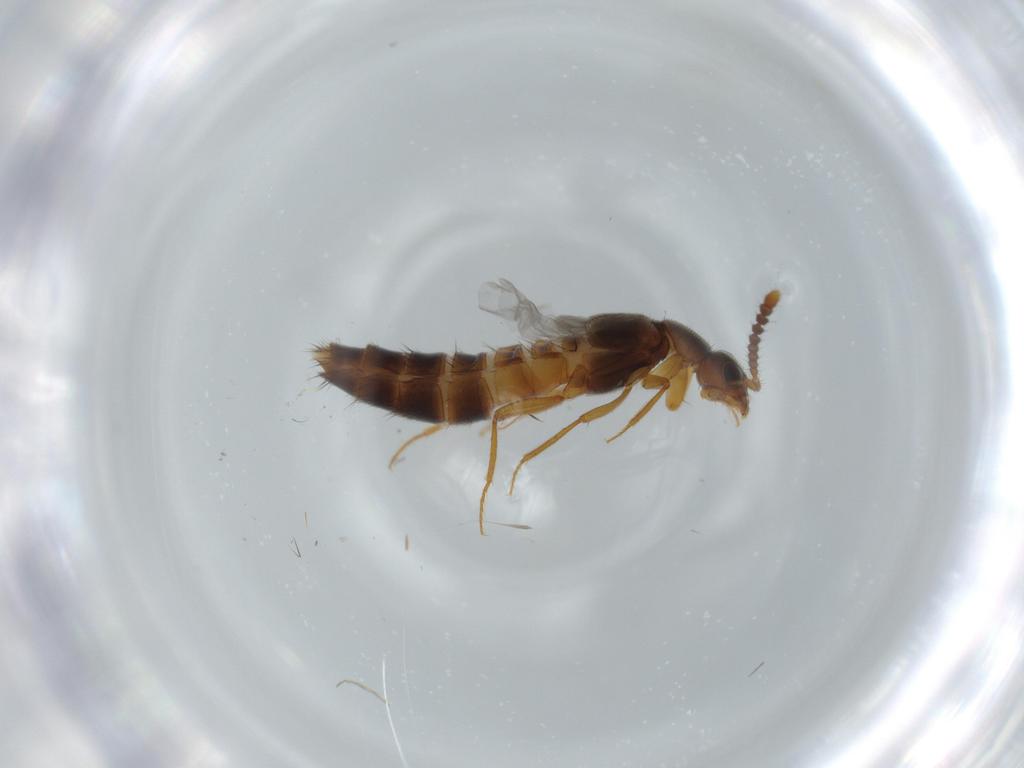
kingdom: Animalia
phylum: Arthropoda
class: Insecta
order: Coleoptera
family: Staphylinidae
